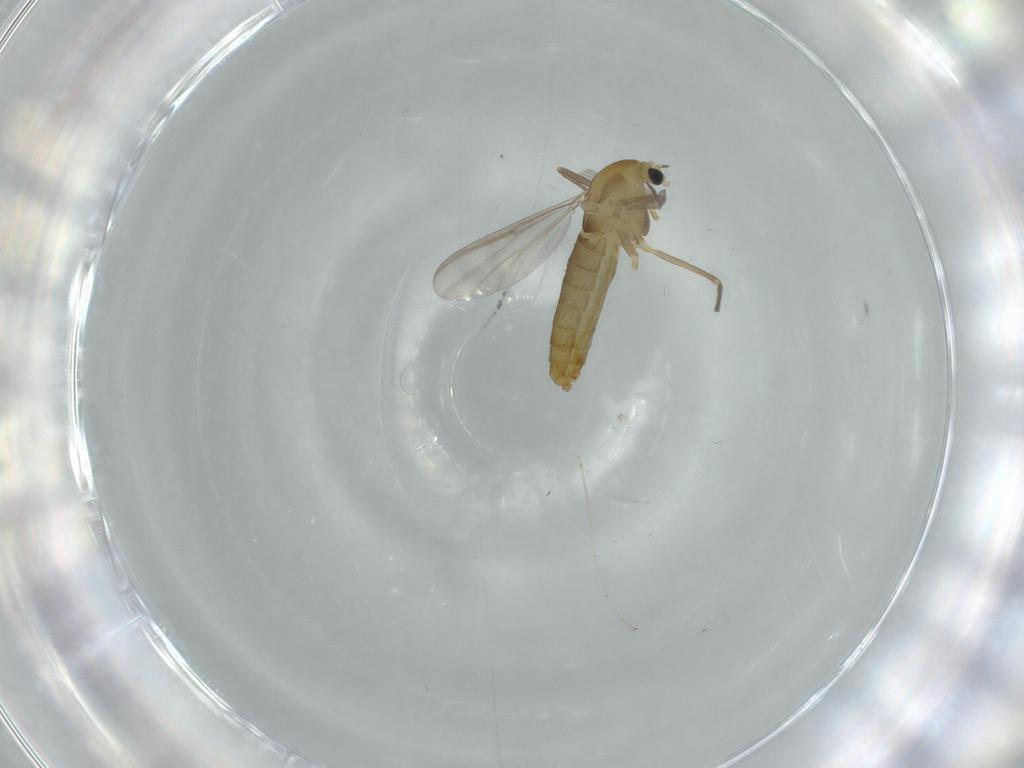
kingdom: Animalia
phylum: Arthropoda
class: Insecta
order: Diptera
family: Chironomidae
